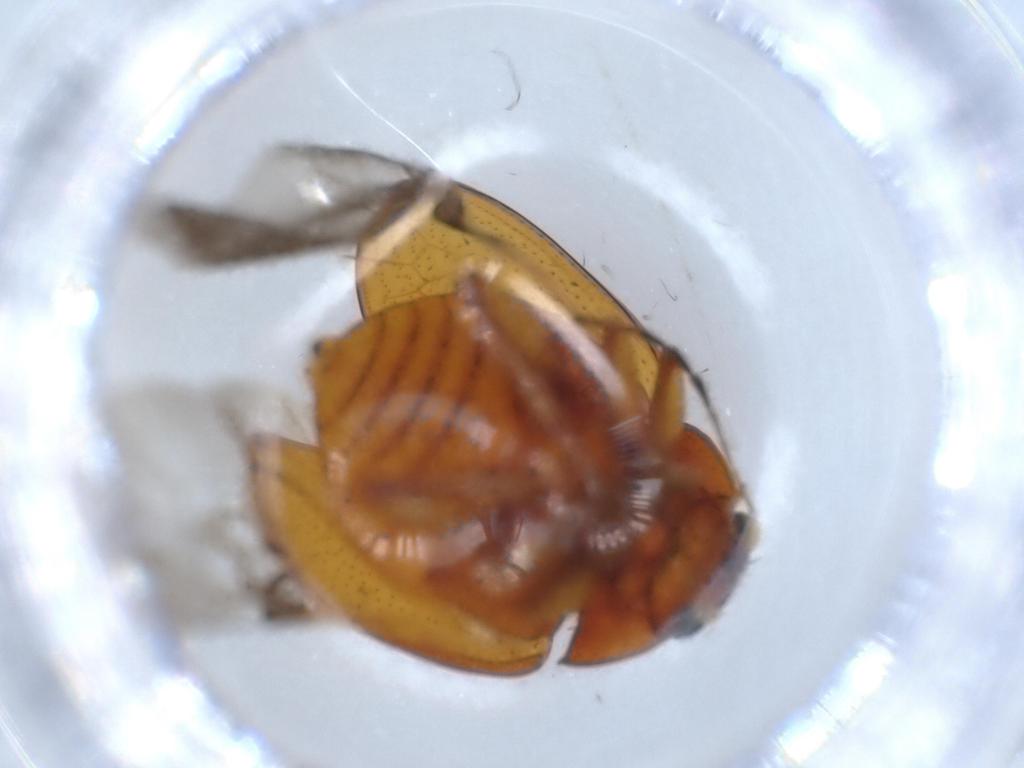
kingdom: Animalia
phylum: Arthropoda
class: Insecta
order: Coleoptera
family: Chrysomelidae
